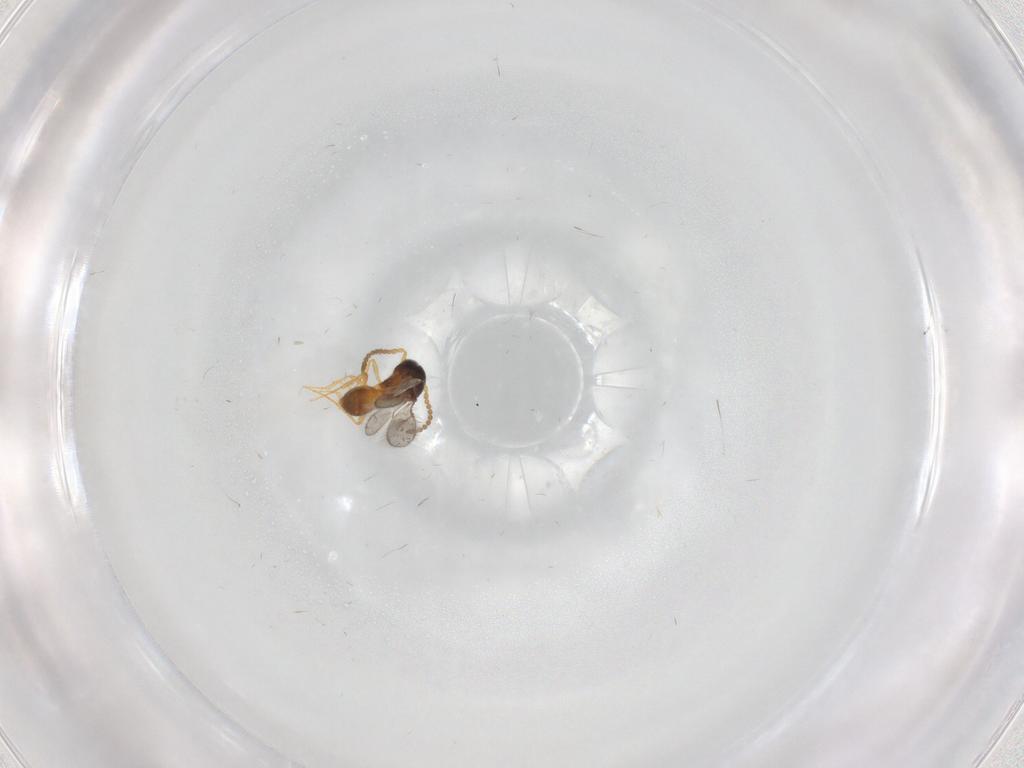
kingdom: Animalia
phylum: Arthropoda
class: Insecta
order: Hymenoptera
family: Scelionidae
